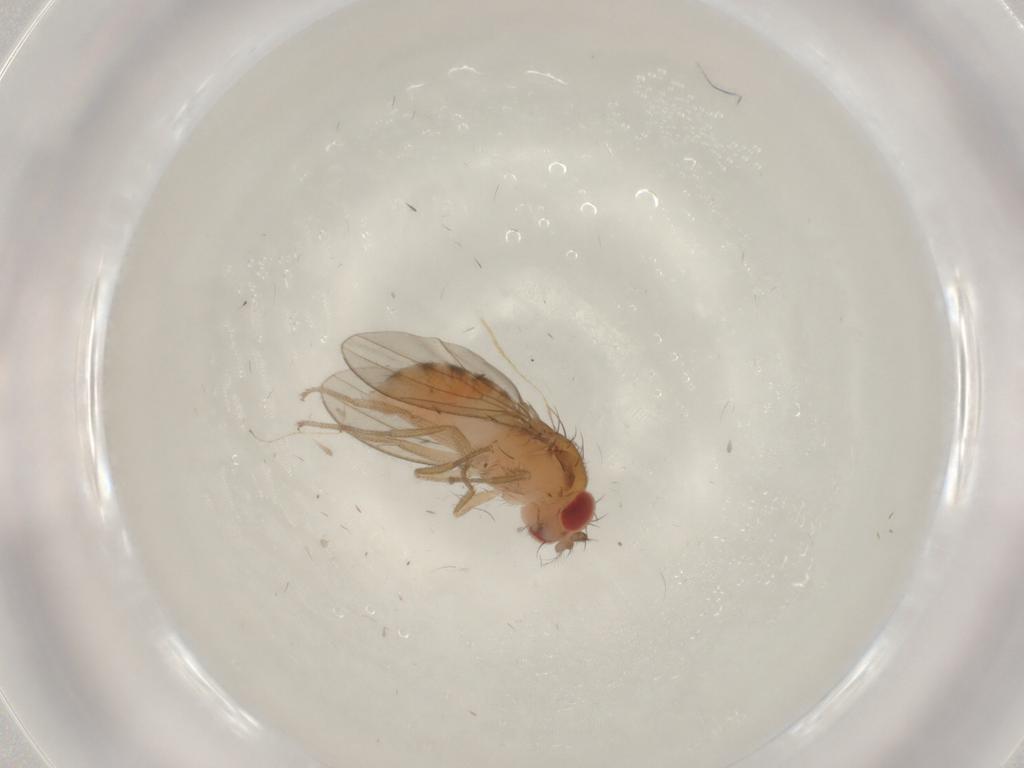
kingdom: Animalia
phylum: Arthropoda
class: Insecta
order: Diptera
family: Drosophilidae
